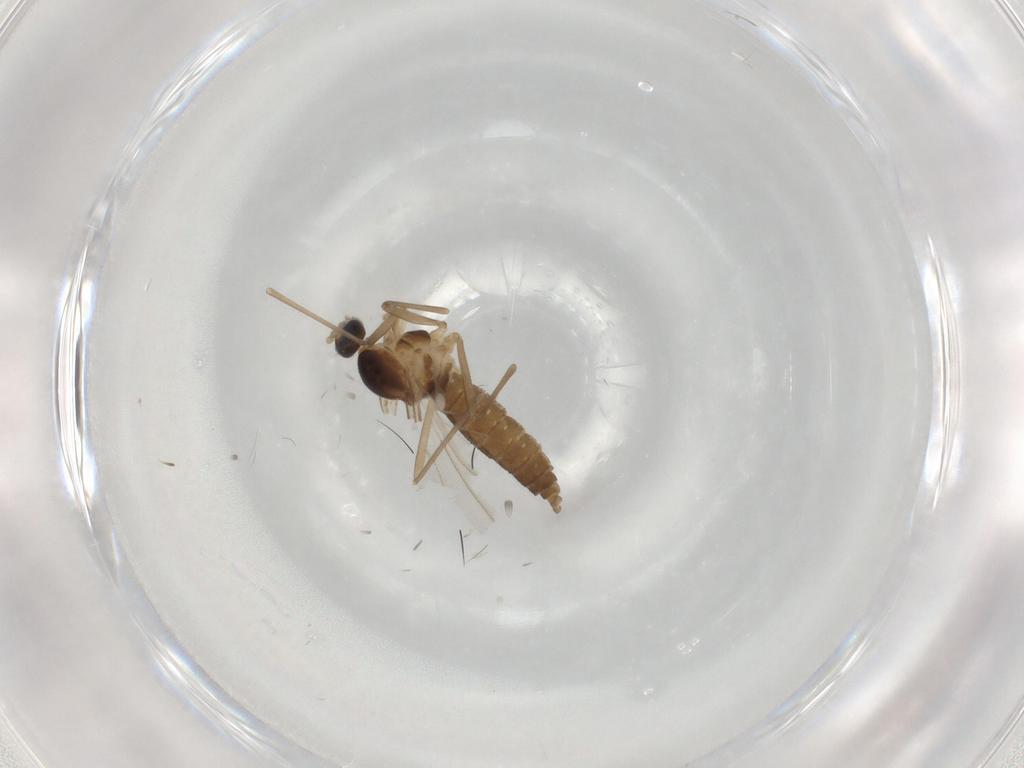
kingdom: Animalia
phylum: Arthropoda
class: Insecta
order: Diptera
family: Cecidomyiidae
